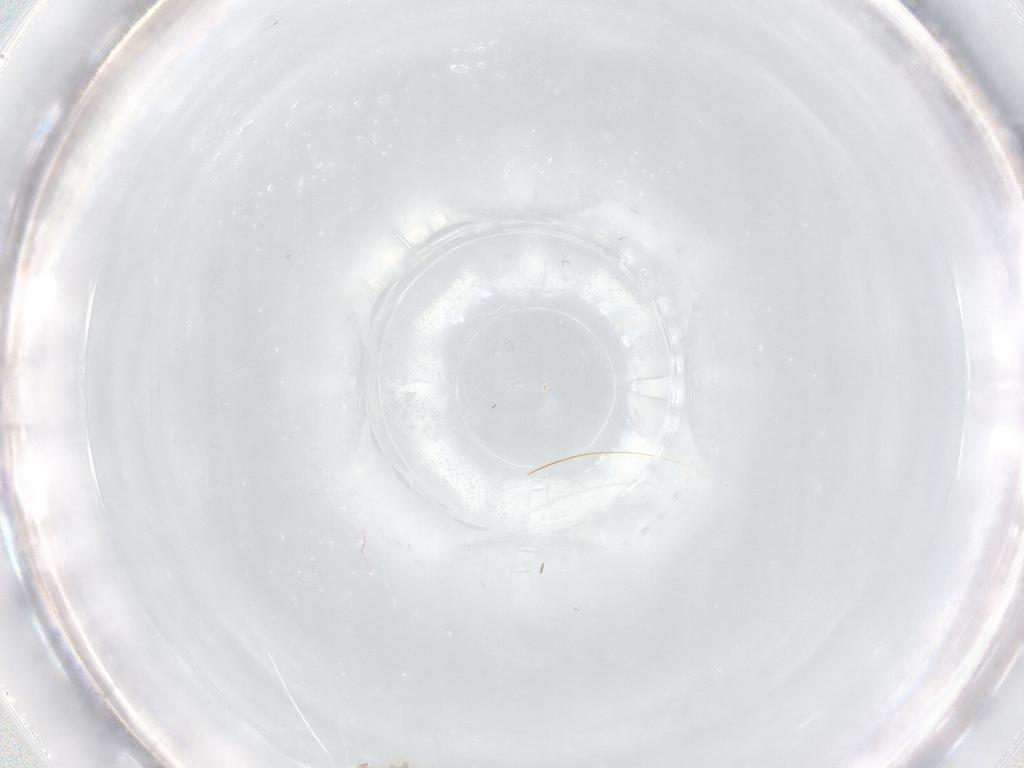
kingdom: Animalia
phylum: Arthropoda
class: Insecta
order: Diptera
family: Cecidomyiidae
